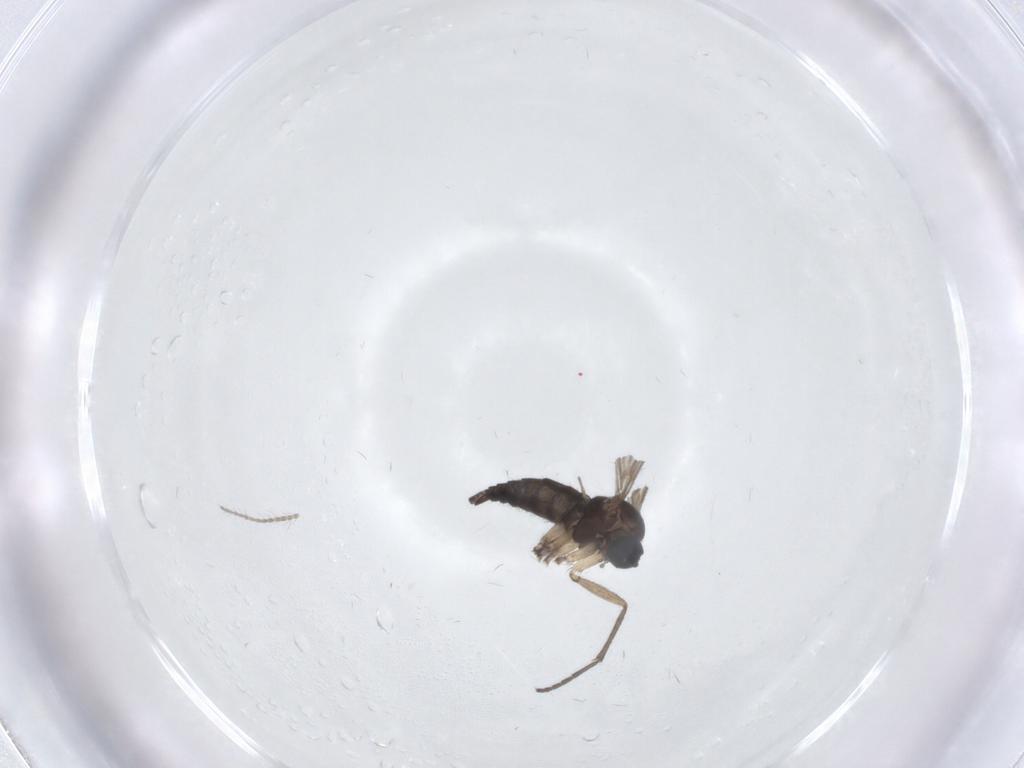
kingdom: Animalia
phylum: Arthropoda
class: Insecta
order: Diptera
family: Sciaridae
